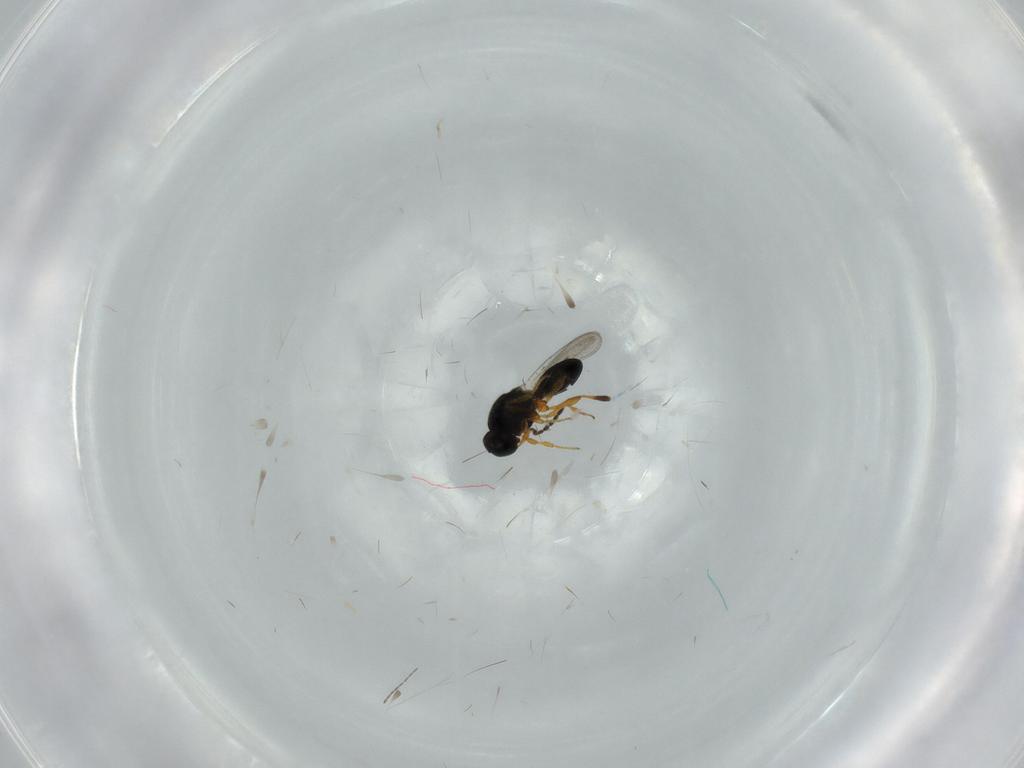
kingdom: Animalia
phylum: Arthropoda
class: Insecta
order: Hymenoptera
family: Platygastridae
